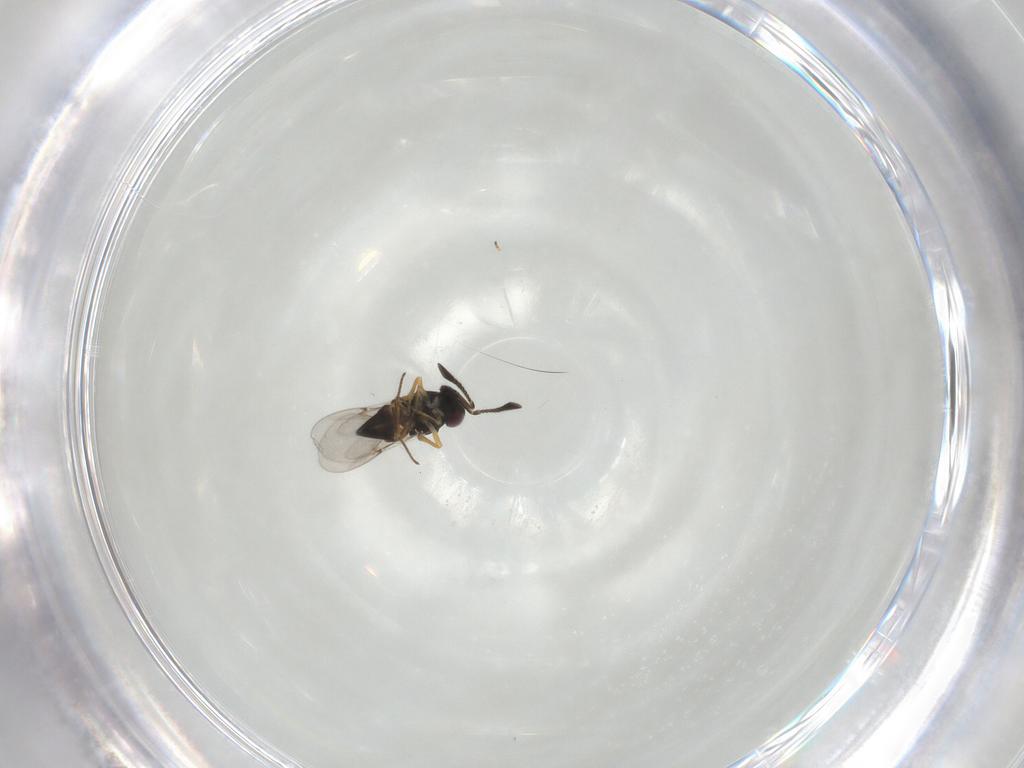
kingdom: Animalia
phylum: Arthropoda
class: Insecta
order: Hymenoptera
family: Encyrtidae
